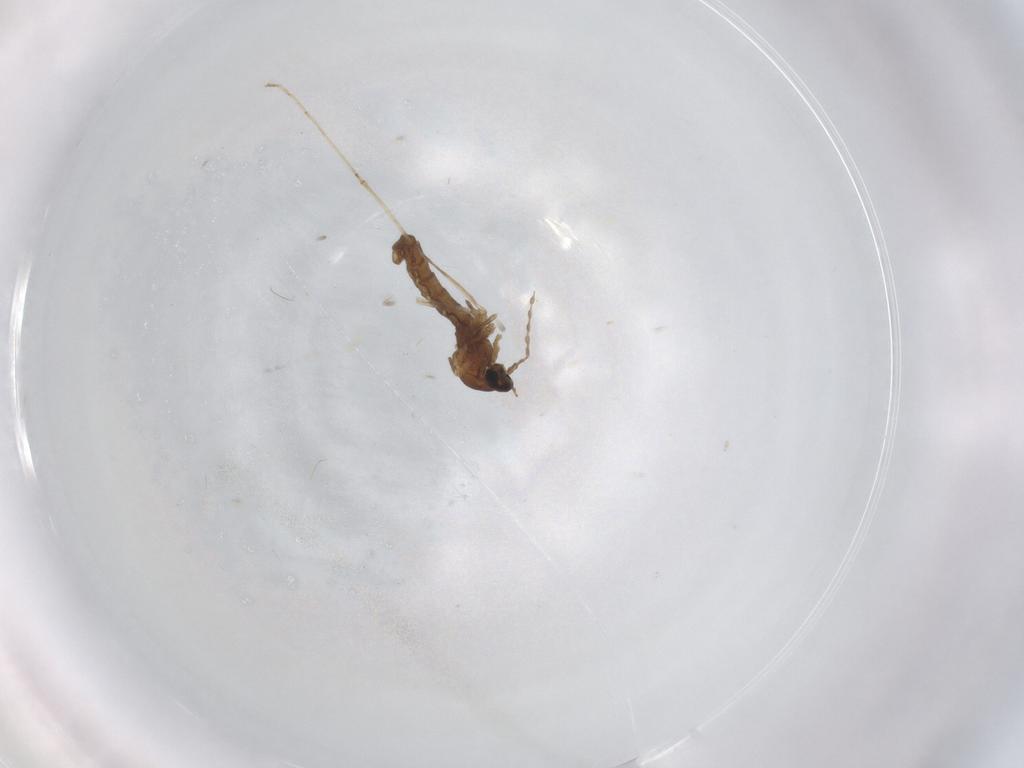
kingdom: Animalia
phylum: Arthropoda
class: Insecta
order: Diptera
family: Cecidomyiidae
